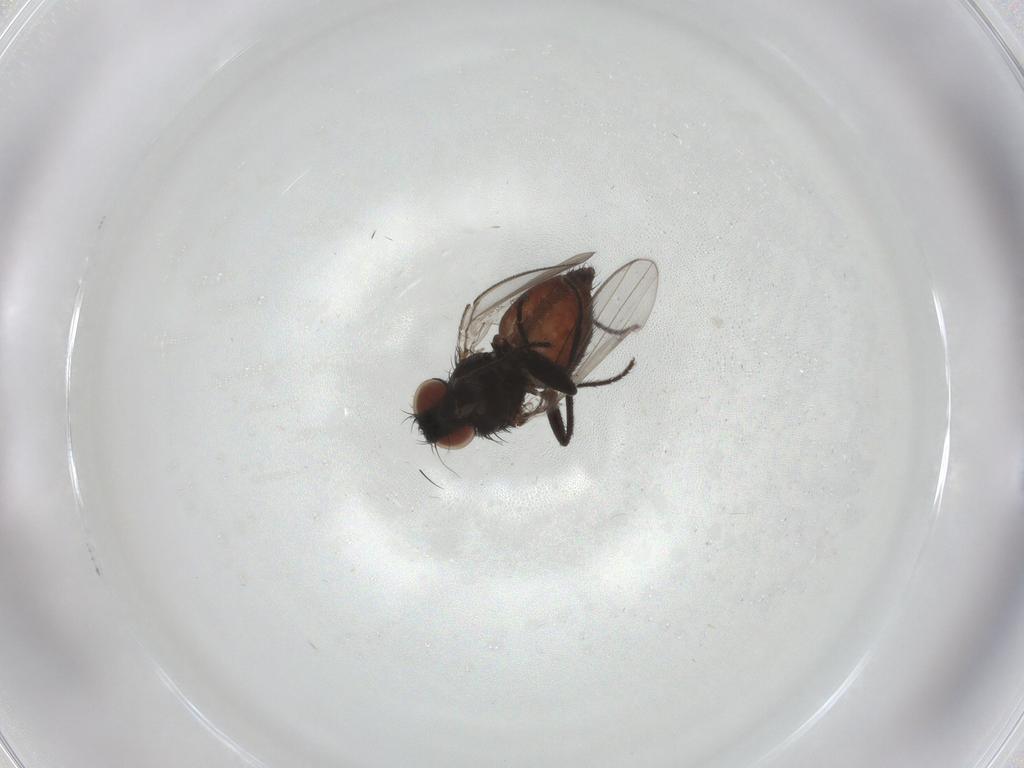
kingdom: Animalia
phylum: Arthropoda
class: Insecta
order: Diptera
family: Milichiidae
